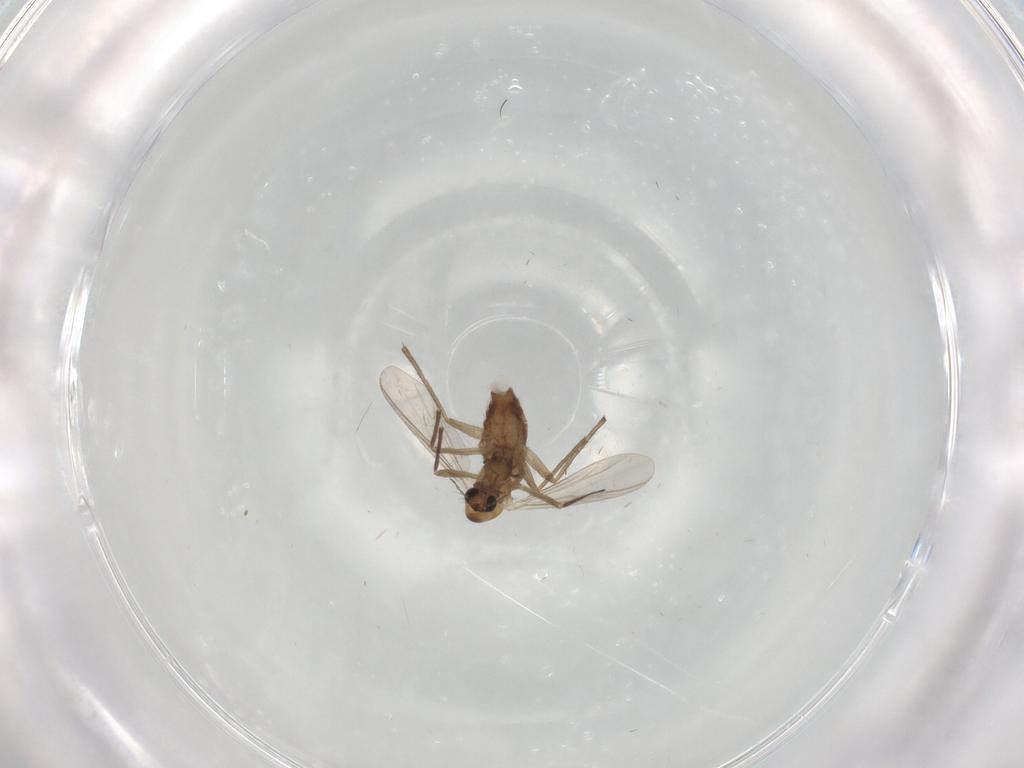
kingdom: Animalia
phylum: Arthropoda
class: Insecta
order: Diptera
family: Chironomidae
